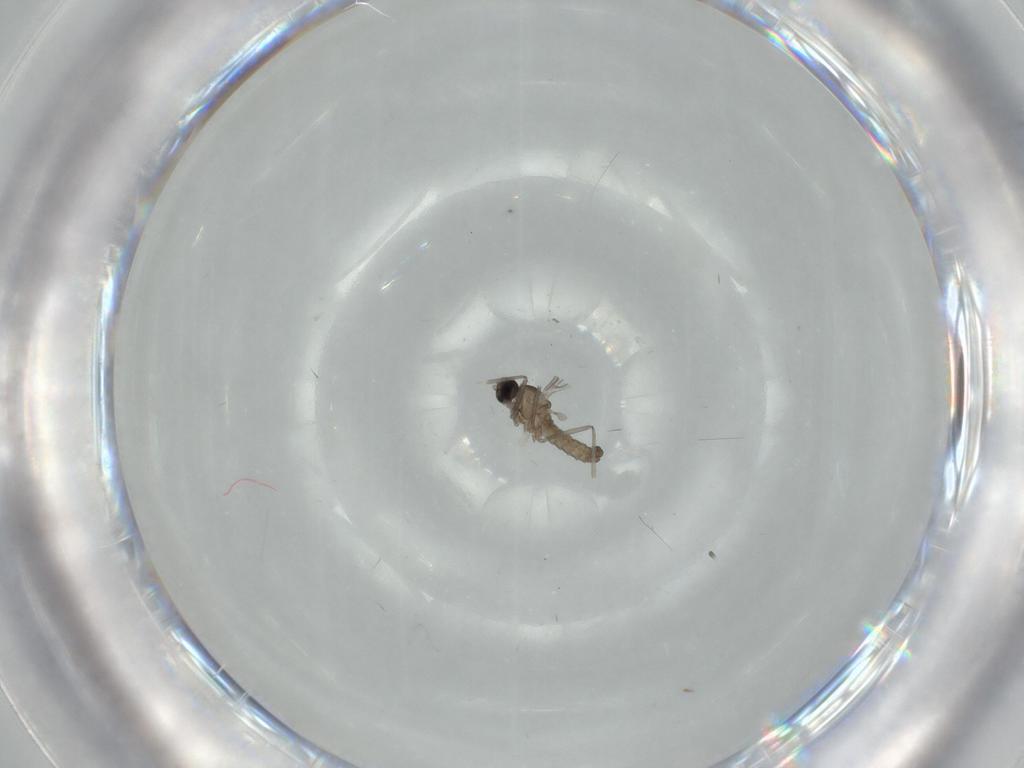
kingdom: Animalia
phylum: Arthropoda
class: Insecta
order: Diptera
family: Cecidomyiidae
